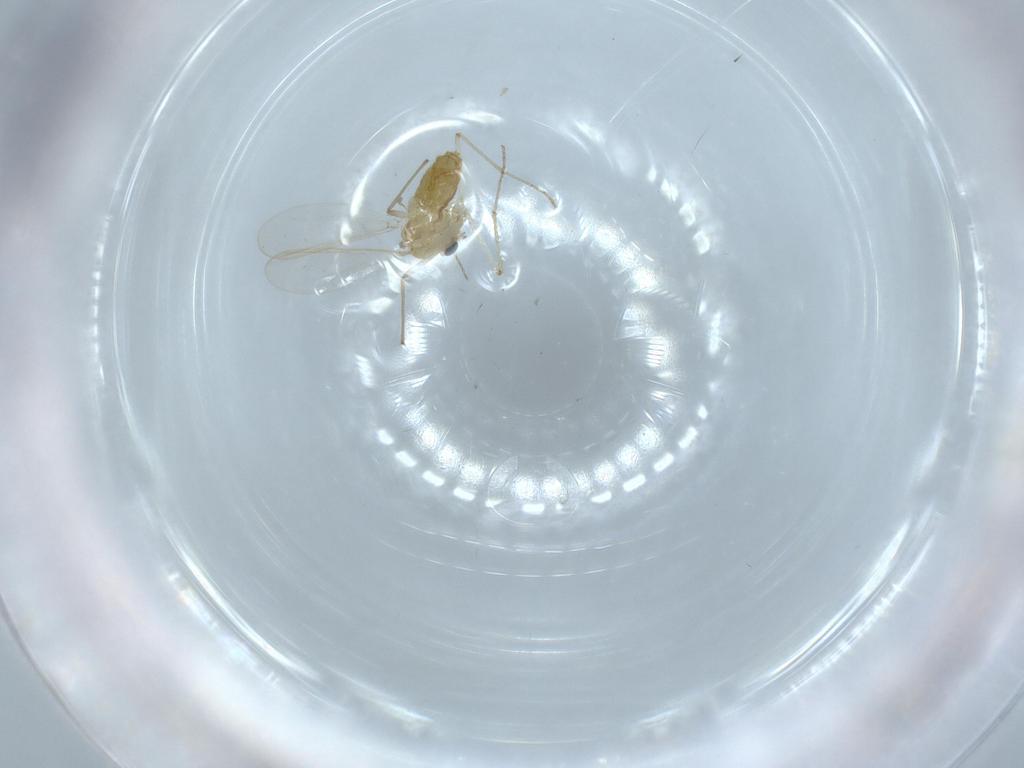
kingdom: Animalia
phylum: Arthropoda
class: Insecta
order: Diptera
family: Chironomidae
